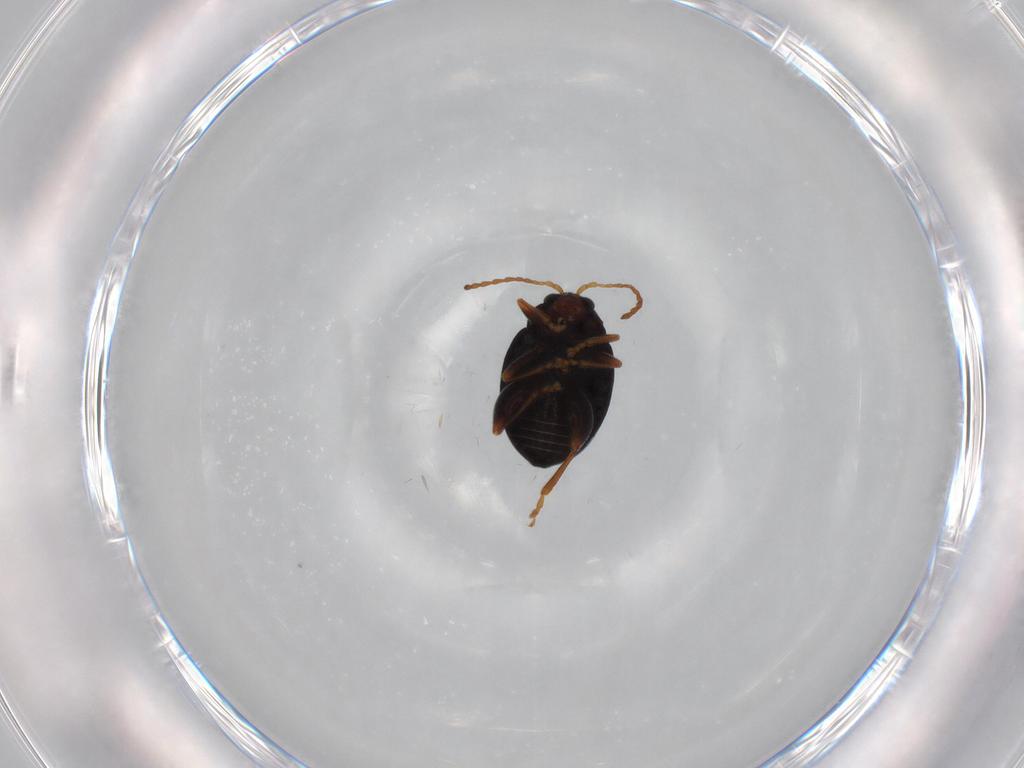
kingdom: Animalia
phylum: Arthropoda
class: Insecta
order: Coleoptera
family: Chrysomelidae
